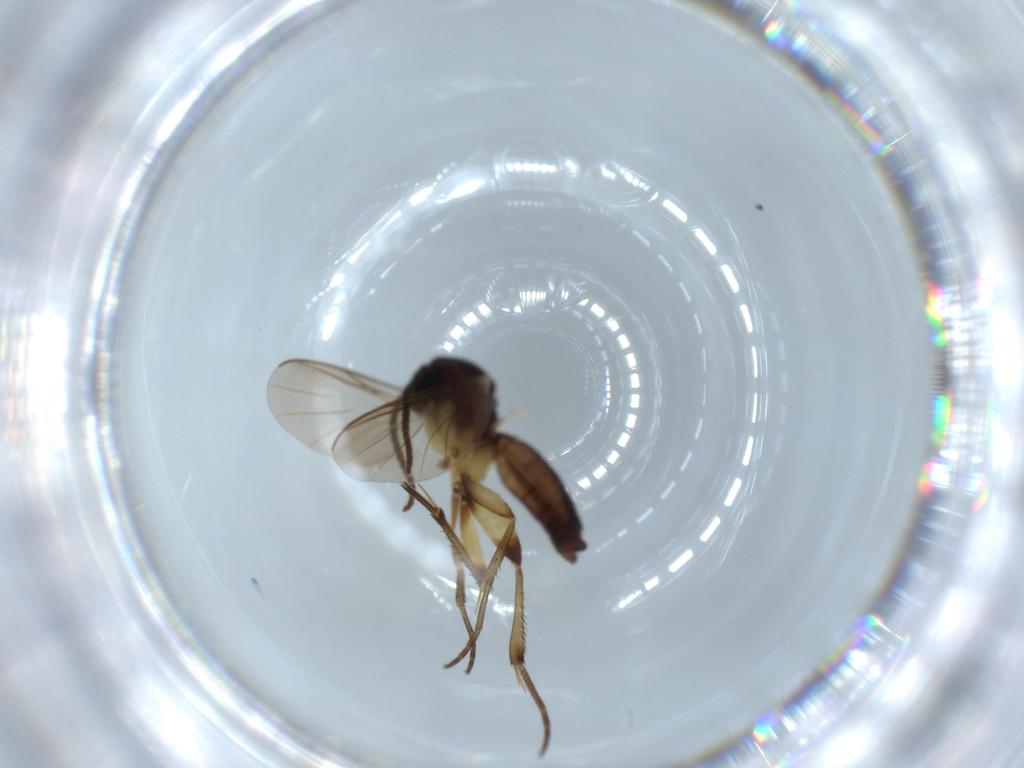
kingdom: Animalia
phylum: Arthropoda
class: Insecta
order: Diptera
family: Mycetophilidae
